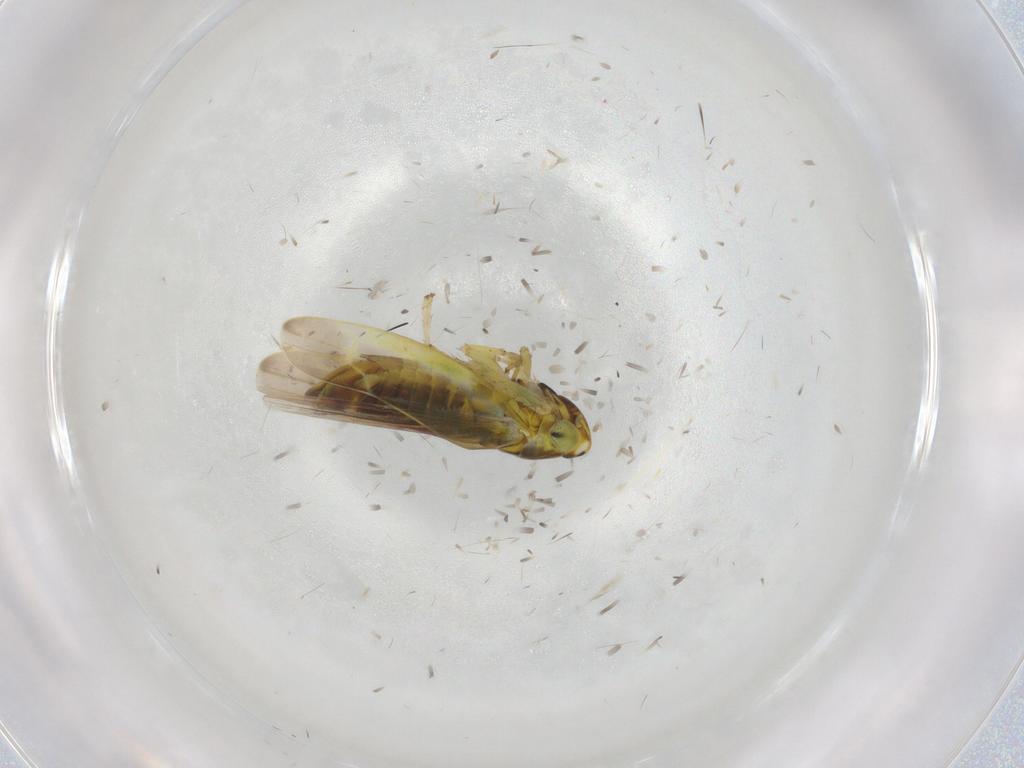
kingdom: Animalia
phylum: Arthropoda
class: Insecta
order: Hemiptera
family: Cicadellidae
